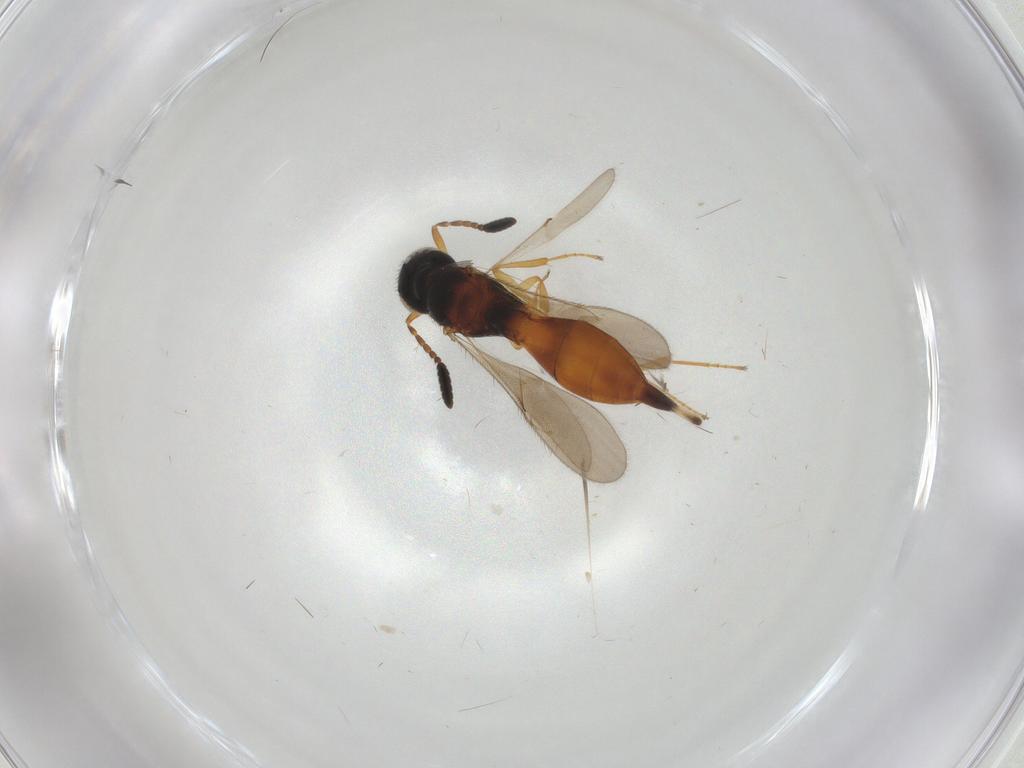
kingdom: Animalia
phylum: Arthropoda
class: Insecta
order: Hymenoptera
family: Scelionidae
